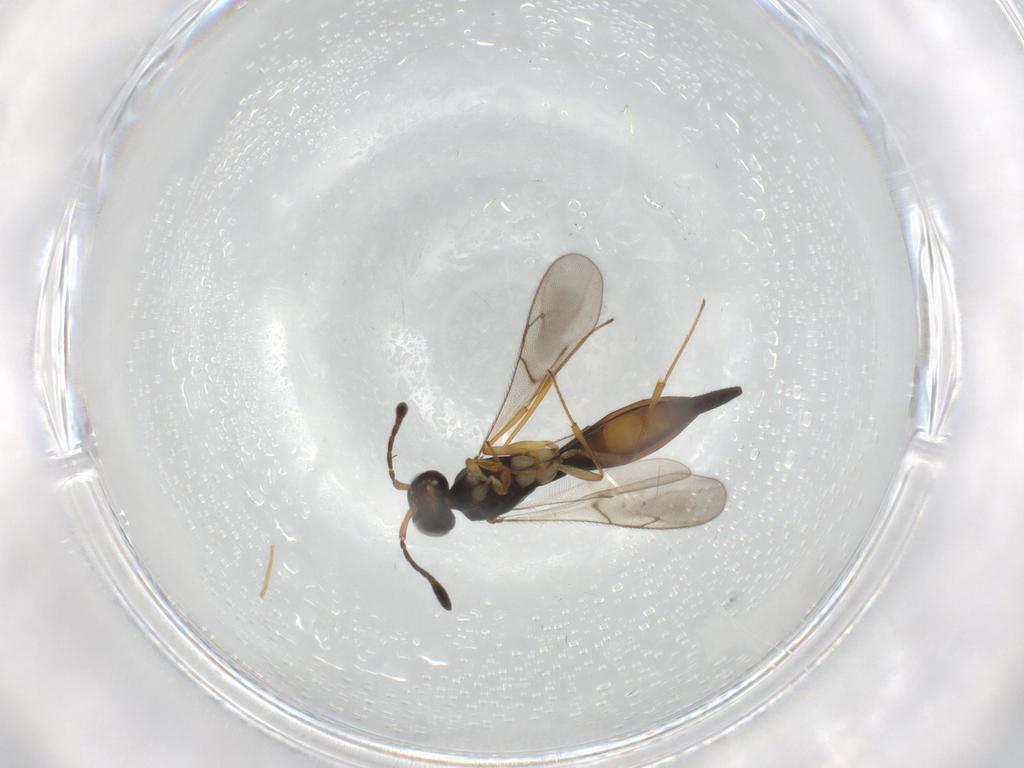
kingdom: Animalia
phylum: Arthropoda
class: Insecta
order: Hymenoptera
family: Scelionidae
